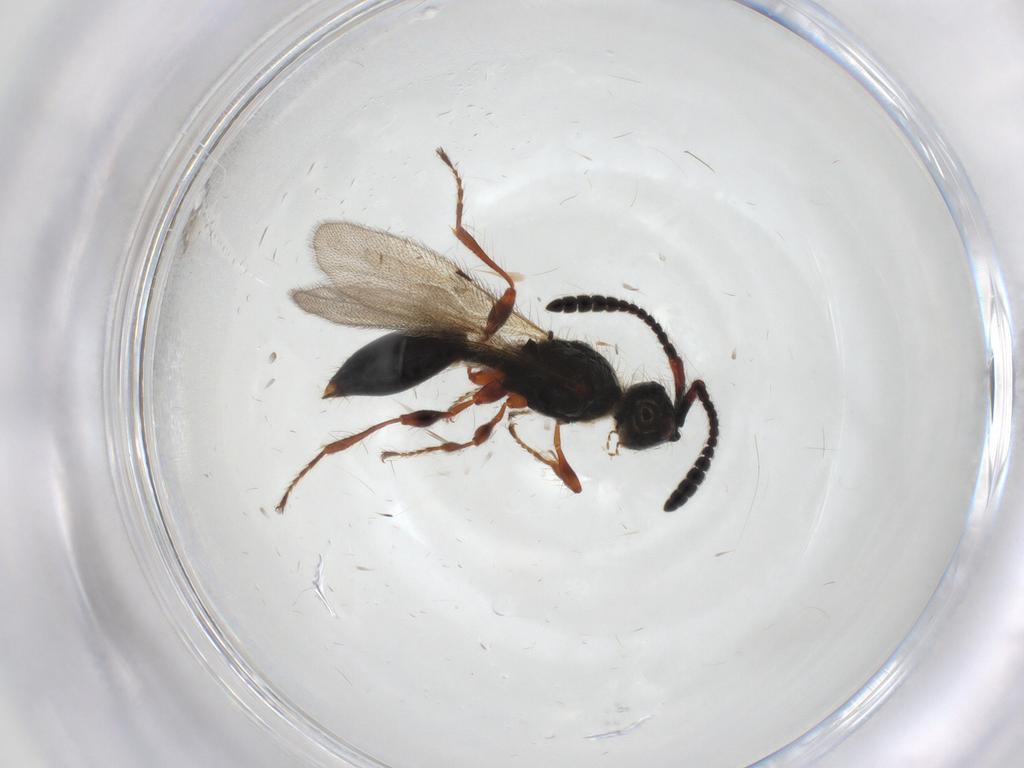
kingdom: Animalia
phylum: Arthropoda
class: Insecta
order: Hymenoptera
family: Diapriidae
